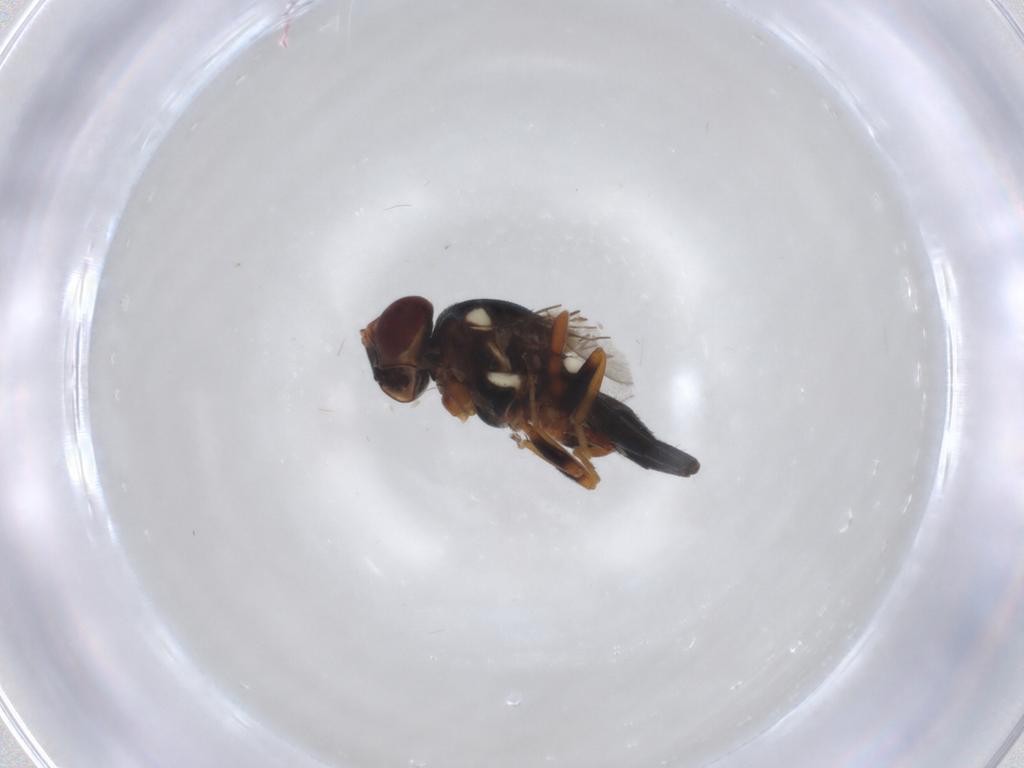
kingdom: Animalia
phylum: Arthropoda
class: Insecta
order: Diptera
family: Chloropidae
